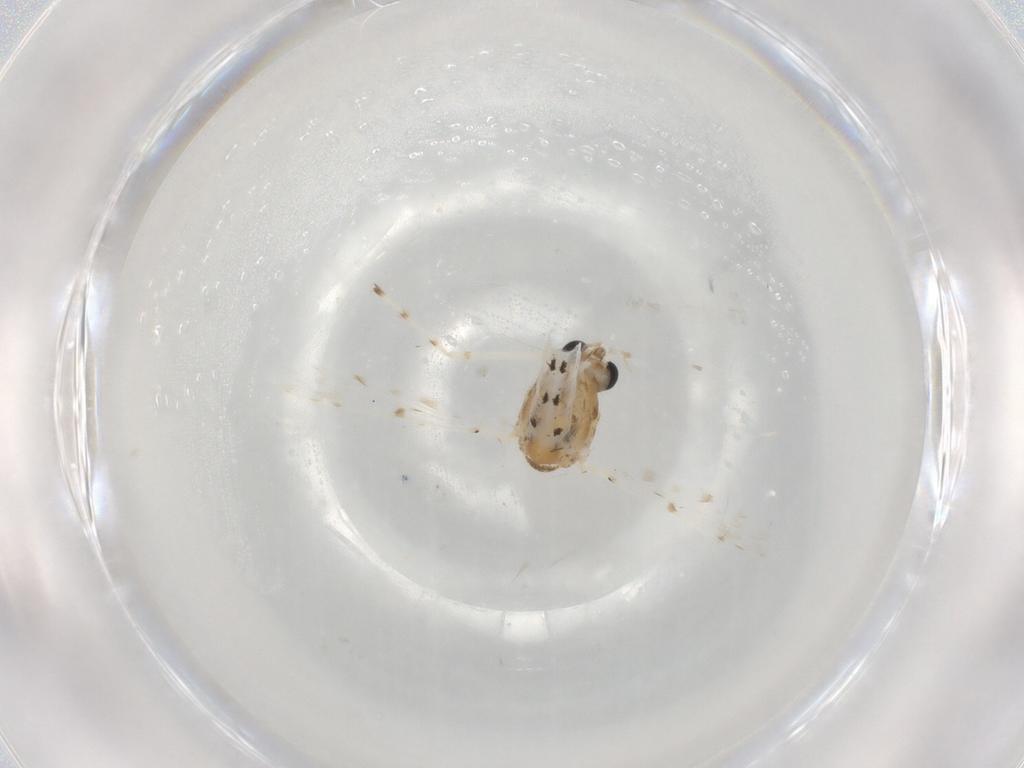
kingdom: Animalia
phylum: Arthropoda
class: Insecta
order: Diptera
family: Chironomidae
